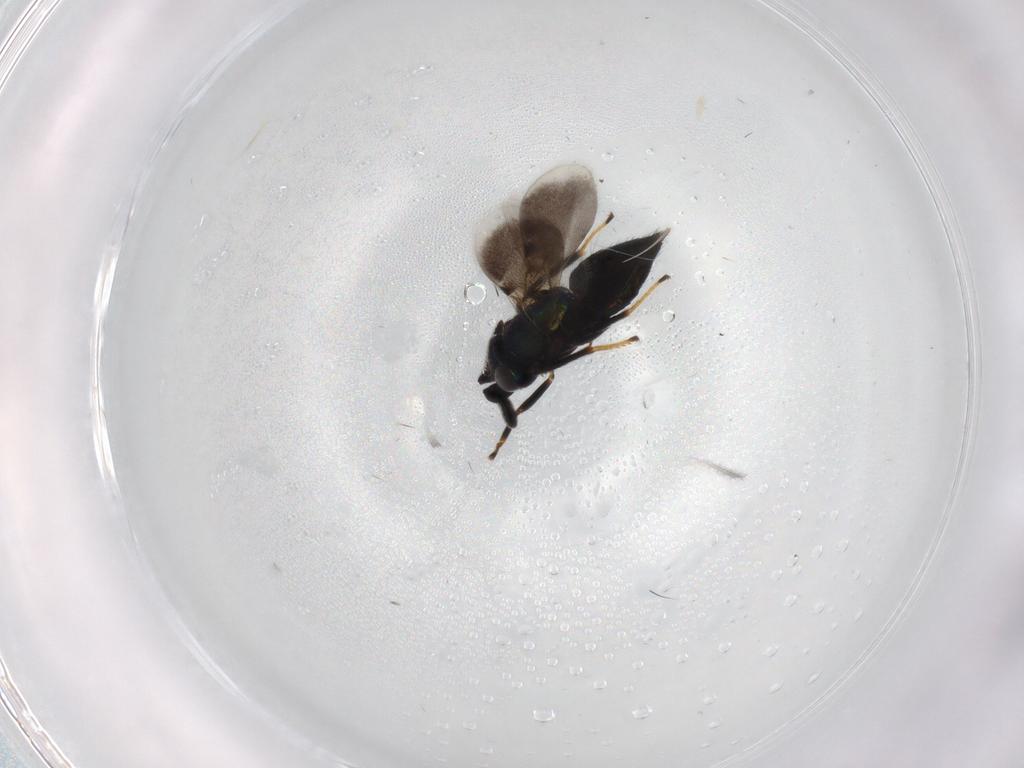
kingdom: Animalia
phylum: Arthropoda
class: Insecta
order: Hymenoptera
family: Encyrtidae
